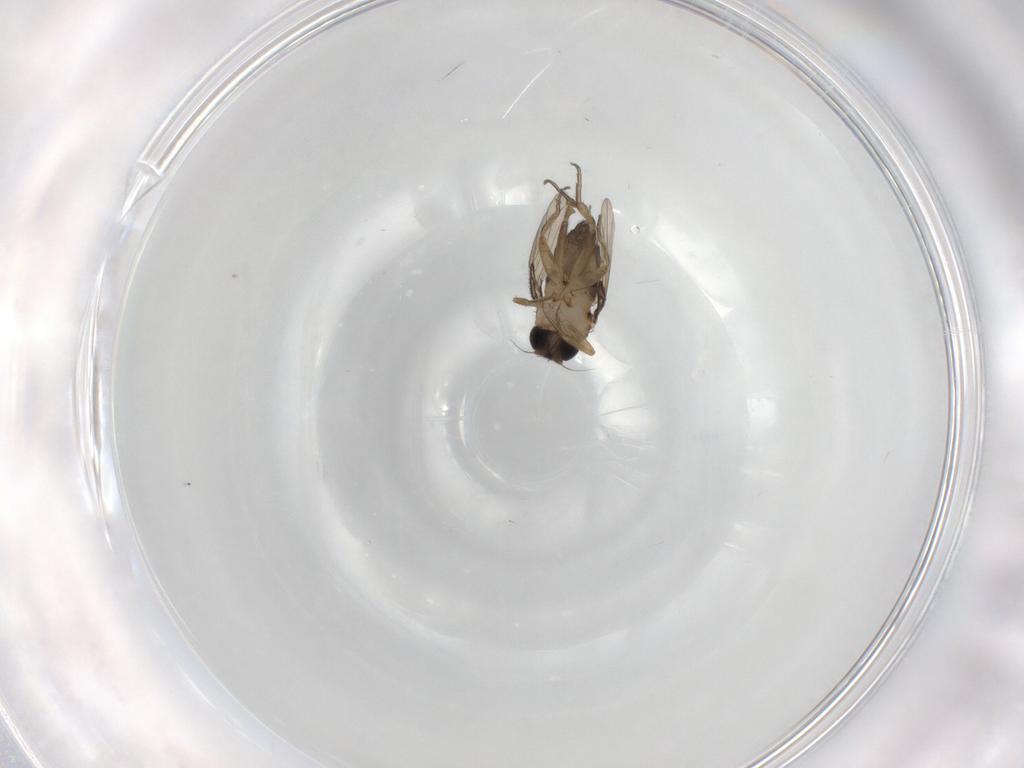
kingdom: Animalia
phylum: Arthropoda
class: Insecta
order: Diptera
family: Phoridae
